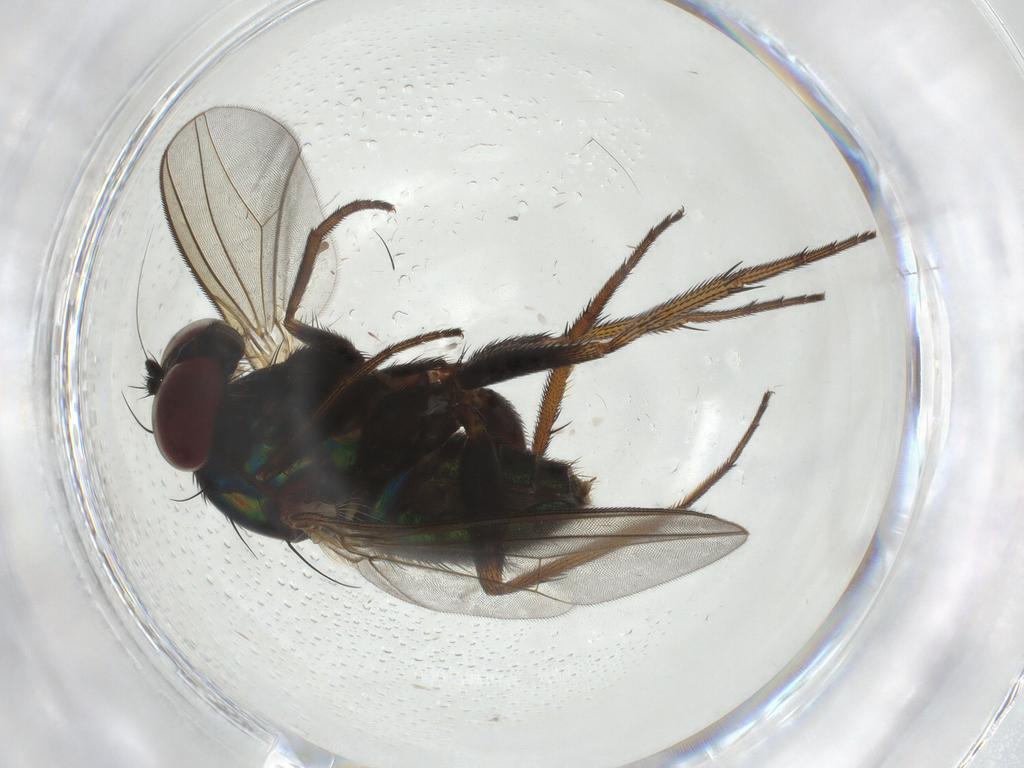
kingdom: Animalia
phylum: Arthropoda
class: Insecta
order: Diptera
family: Dolichopodidae
